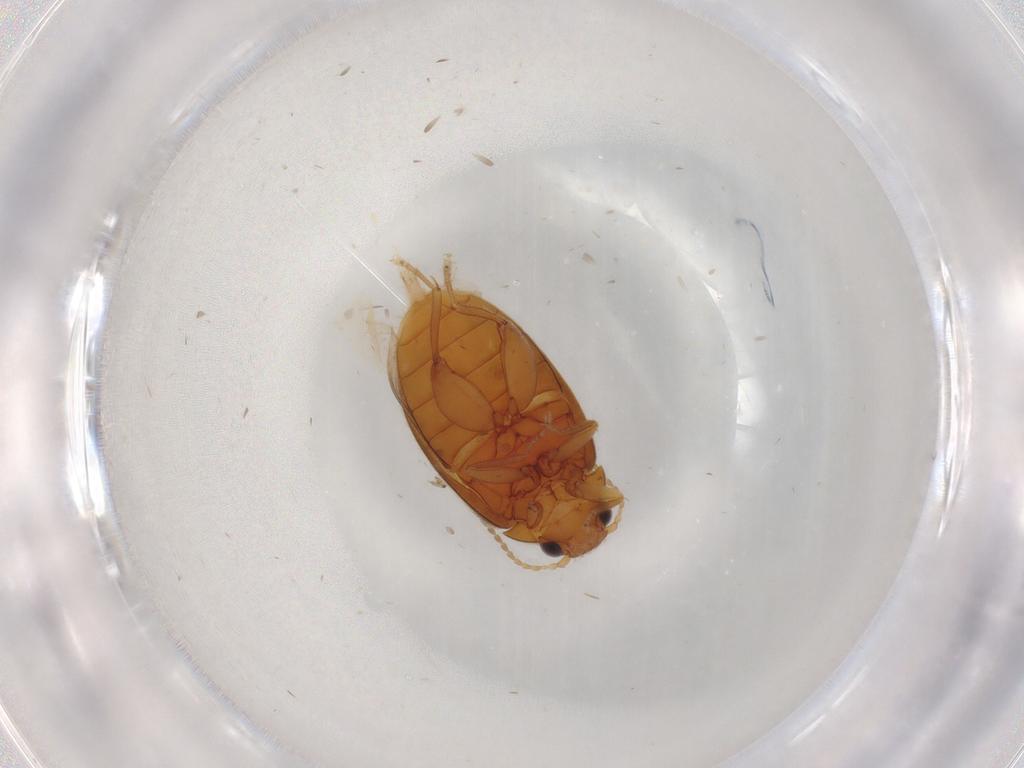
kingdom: Animalia
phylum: Arthropoda
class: Insecta
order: Coleoptera
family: Scirtidae
